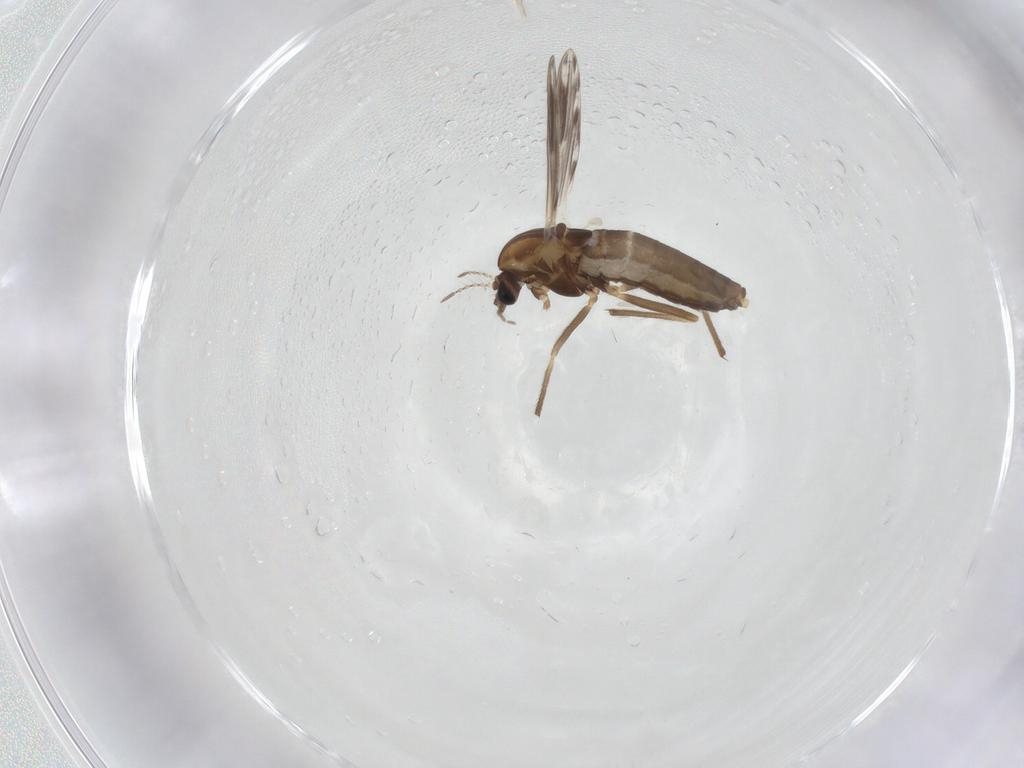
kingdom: Animalia
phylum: Arthropoda
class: Insecta
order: Diptera
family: Chironomidae
